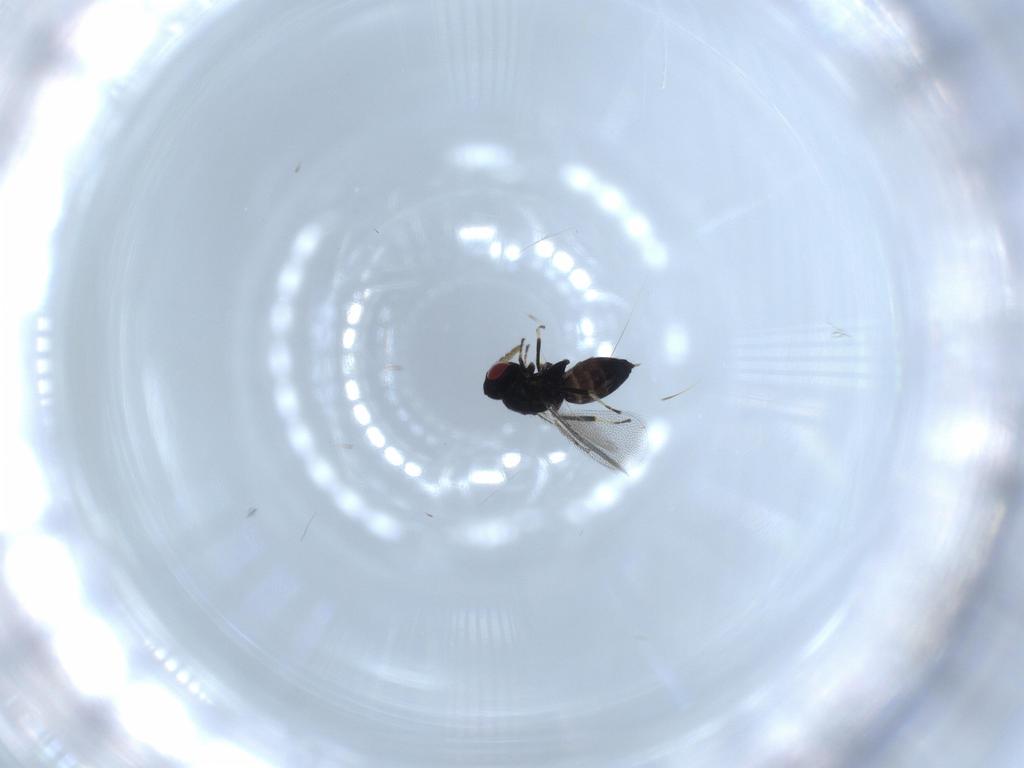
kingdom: Animalia
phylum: Arthropoda
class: Insecta
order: Hymenoptera
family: Eulophidae
